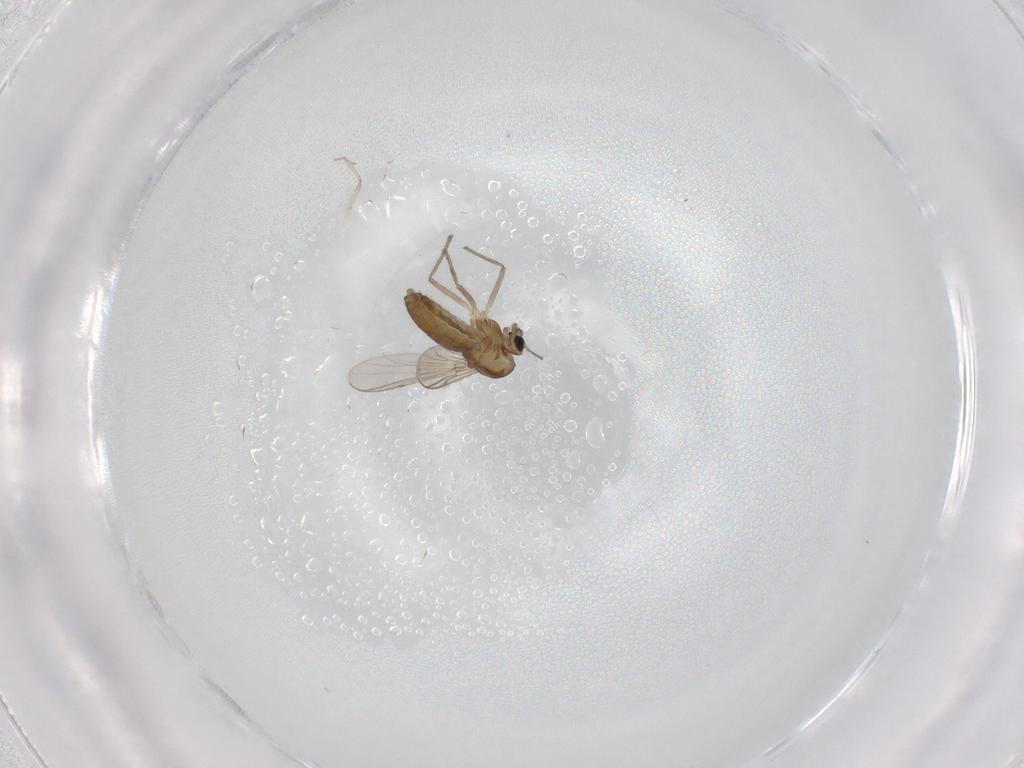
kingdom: Animalia
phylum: Arthropoda
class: Insecta
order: Diptera
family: Chironomidae
